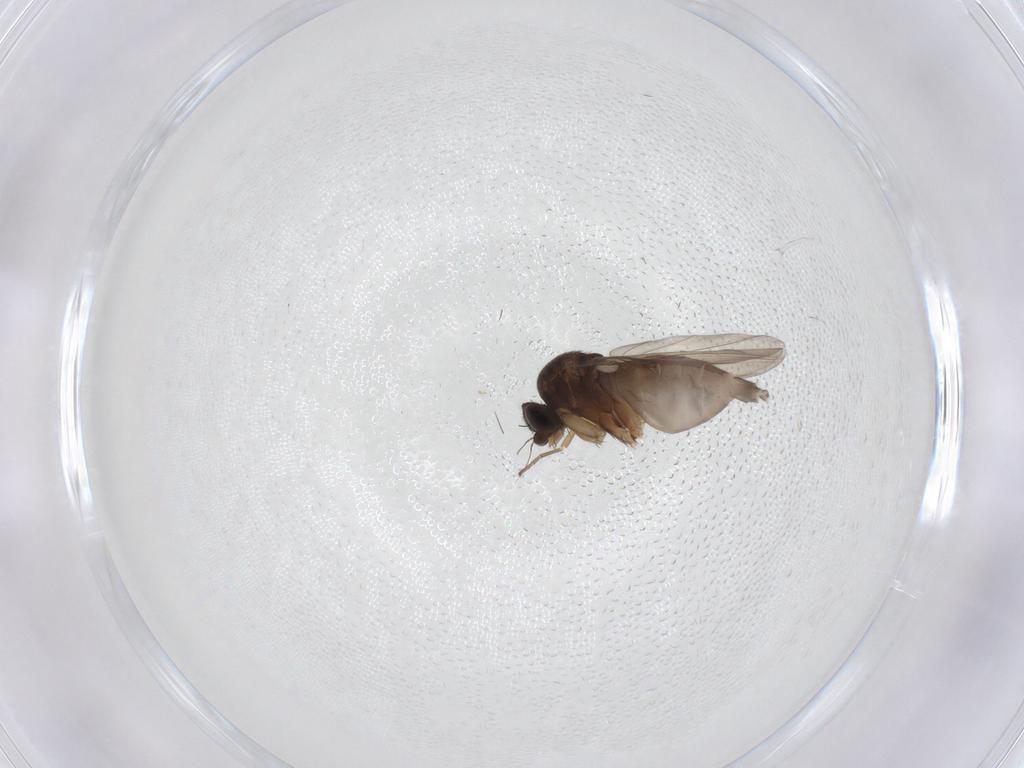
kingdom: Animalia
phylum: Arthropoda
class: Insecta
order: Diptera
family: Phoridae
